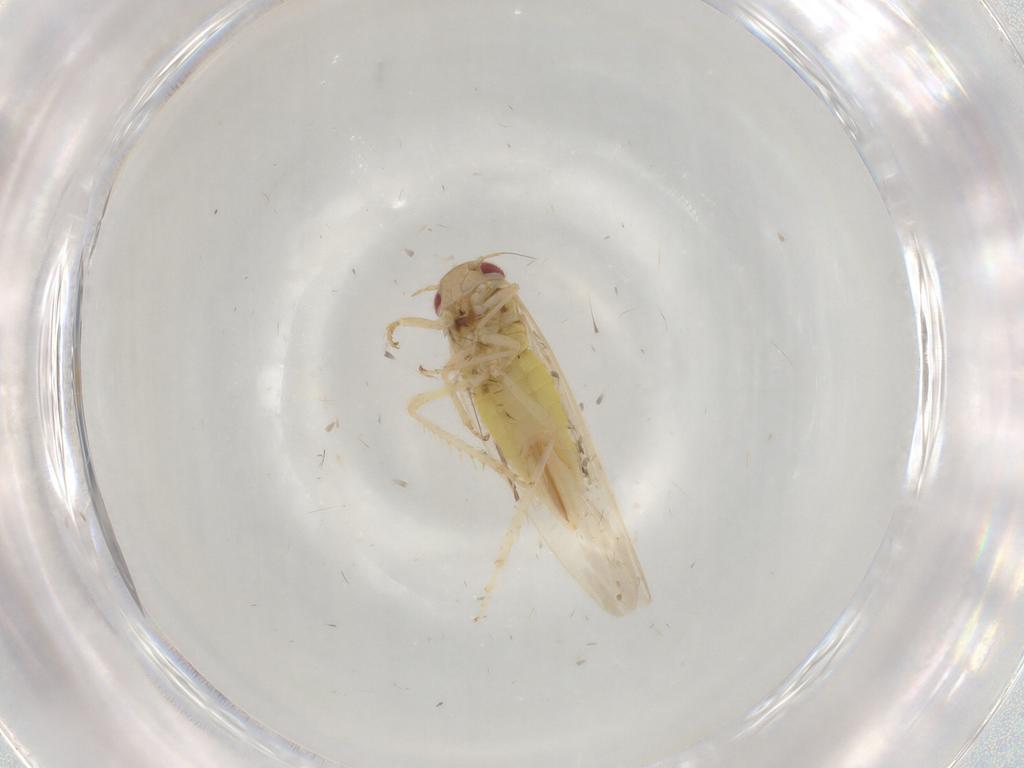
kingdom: Animalia
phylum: Arthropoda
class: Insecta
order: Hemiptera
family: Cicadellidae
